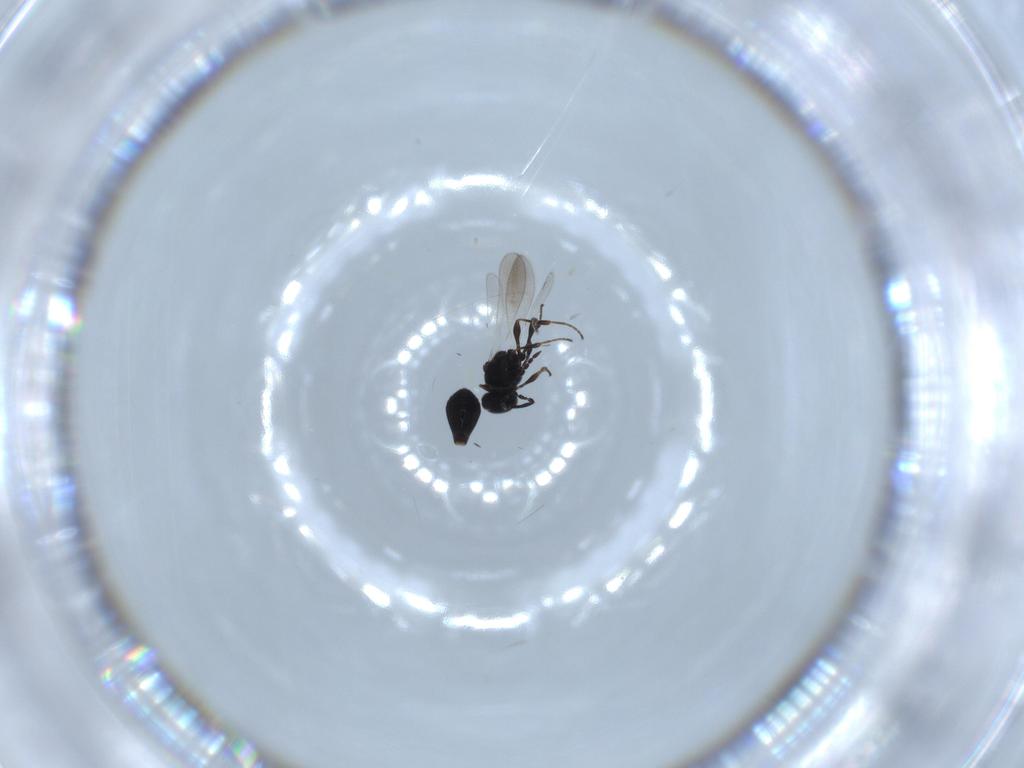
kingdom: Animalia
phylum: Arthropoda
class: Insecta
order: Hymenoptera
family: Platygastridae
